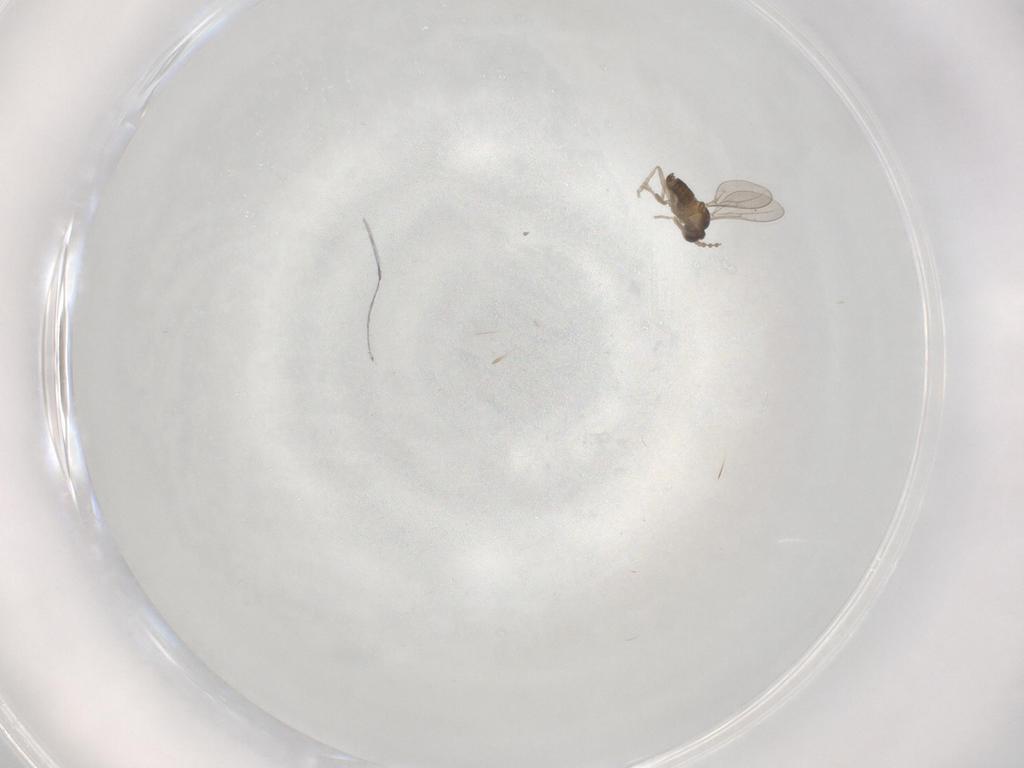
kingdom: Animalia
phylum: Arthropoda
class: Insecta
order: Diptera
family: Cecidomyiidae
